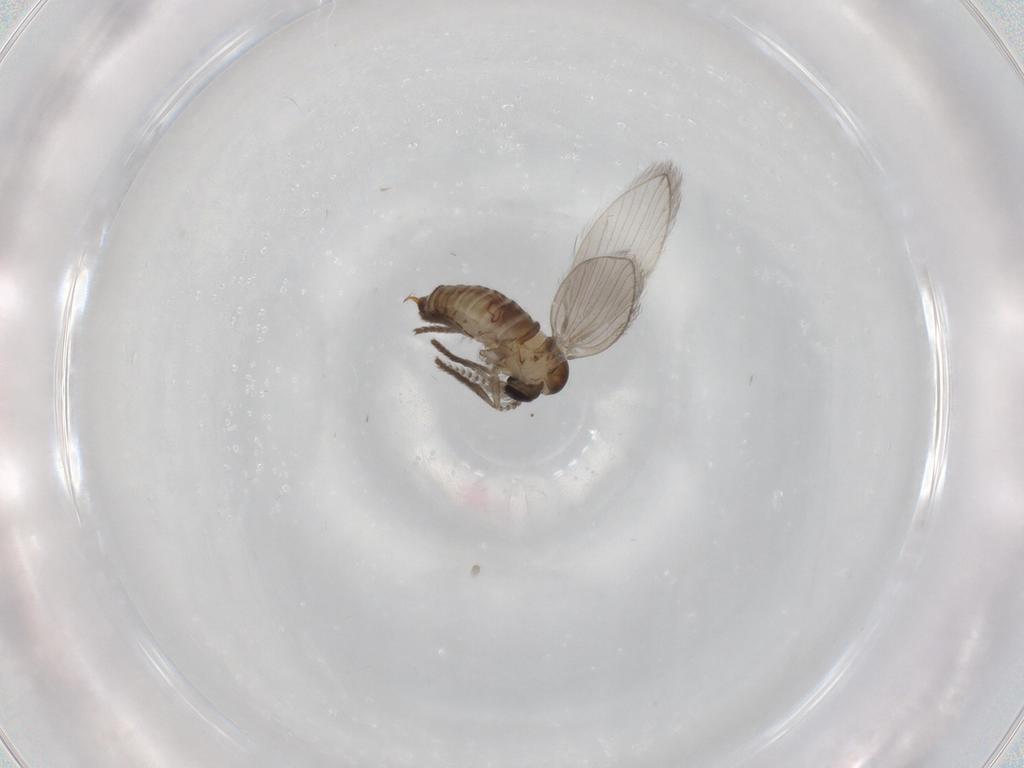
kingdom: Animalia
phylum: Arthropoda
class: Insecta
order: Diptera
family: Psychodidae
